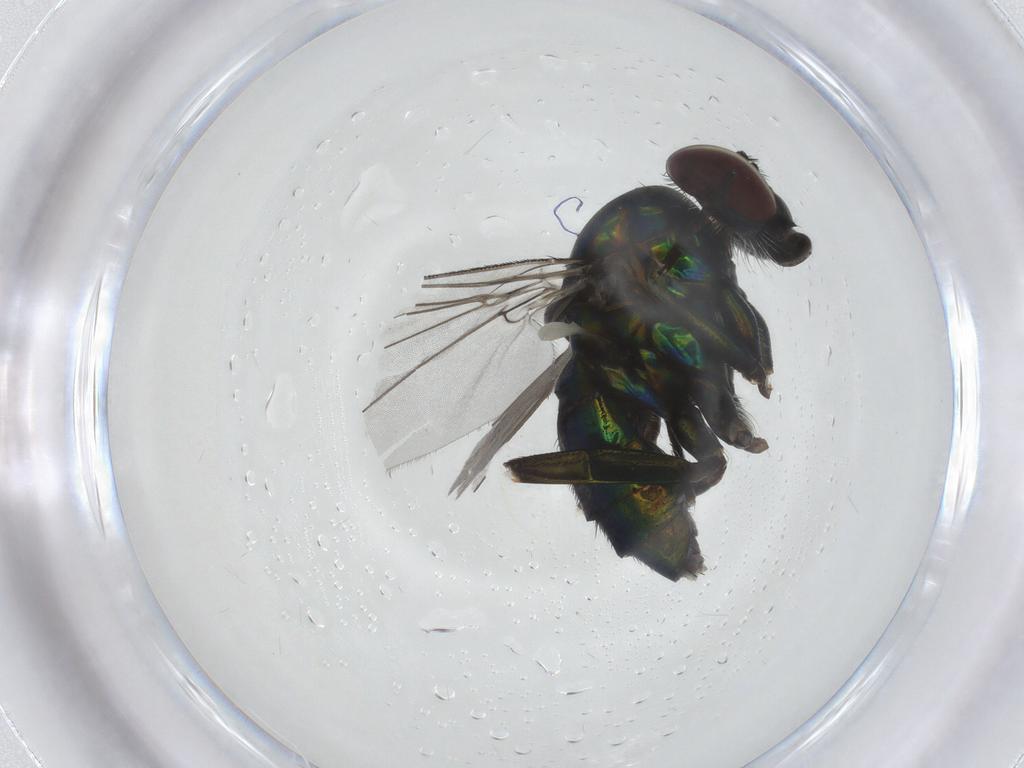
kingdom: Animalia
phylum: Arthropoda
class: Insecta
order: Diptera
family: Dolichopodidae
